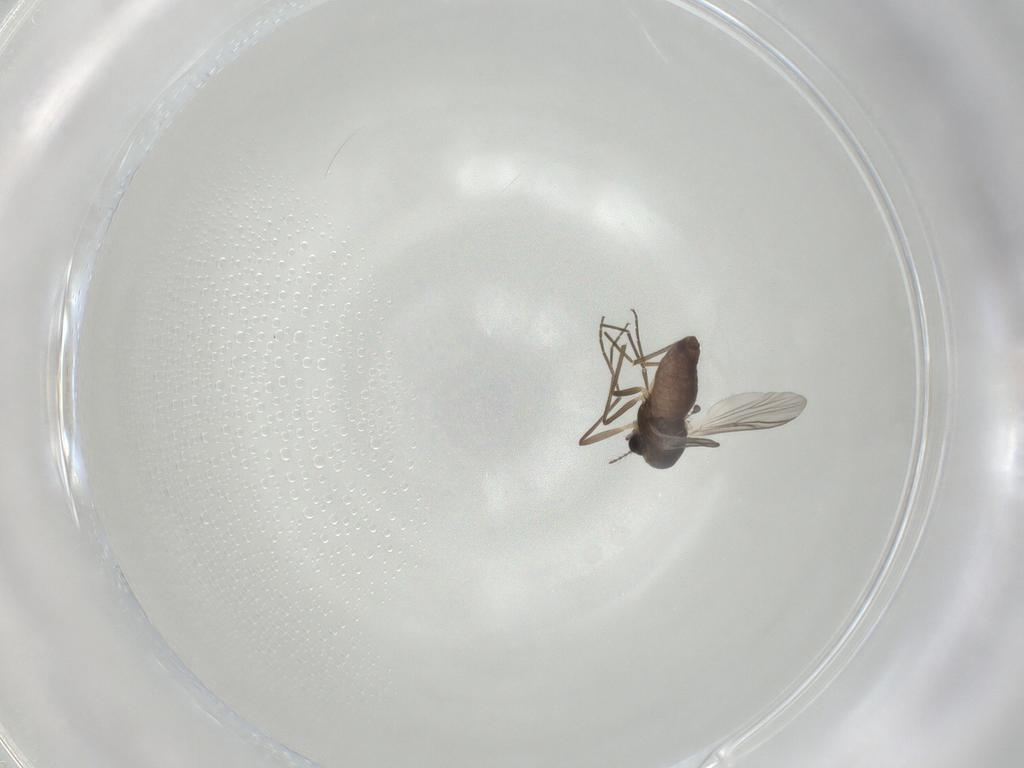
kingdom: Animalia
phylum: Arthropoda
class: Insecta
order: Diptera
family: Chironomidae
